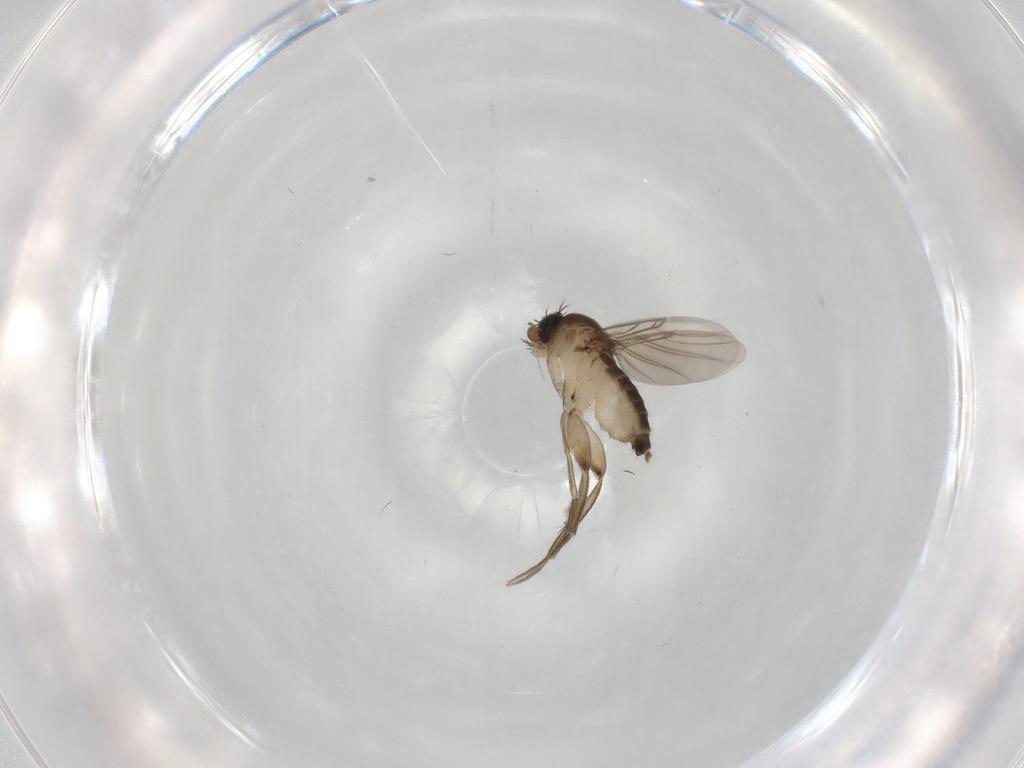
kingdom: Animalia
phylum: Arthropoda
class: Insecta
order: Diptera
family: Phoridae
